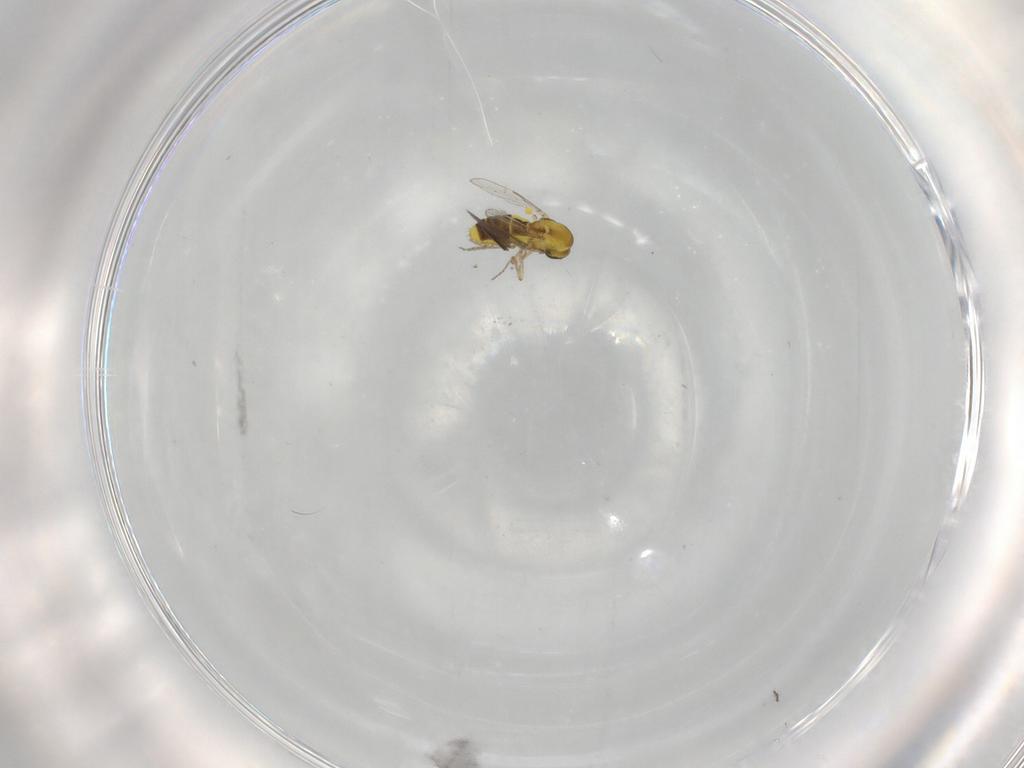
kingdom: Animalia
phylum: Arthropoda
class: Insecta
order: Diptera
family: Ceratopogonidae
